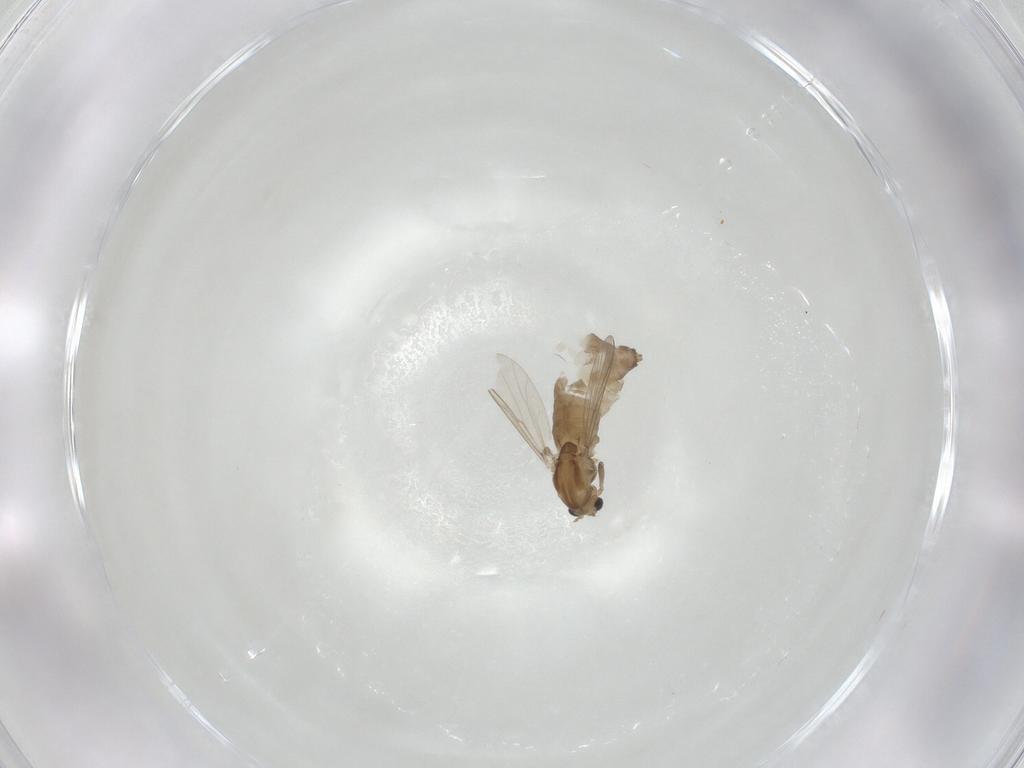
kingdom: Animalia
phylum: Arthropoda
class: Insecta
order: Diptera
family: Chironomidae
